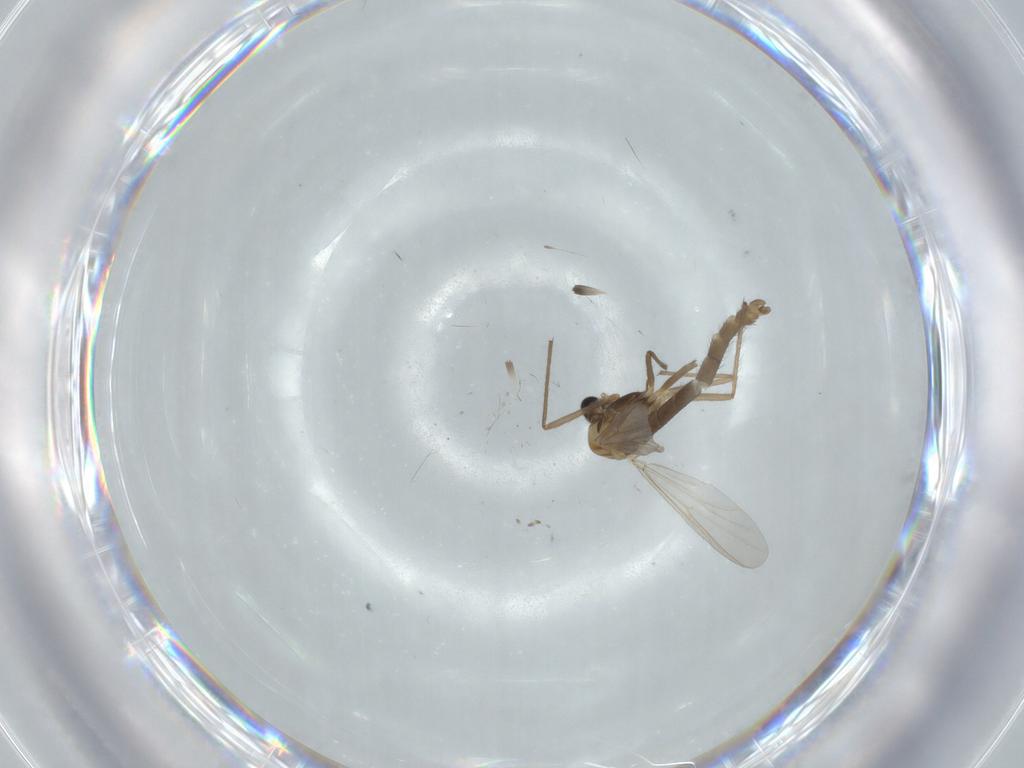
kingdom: Animalia
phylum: Arthropoda
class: Insecta
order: Diptera
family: Chironomidae
